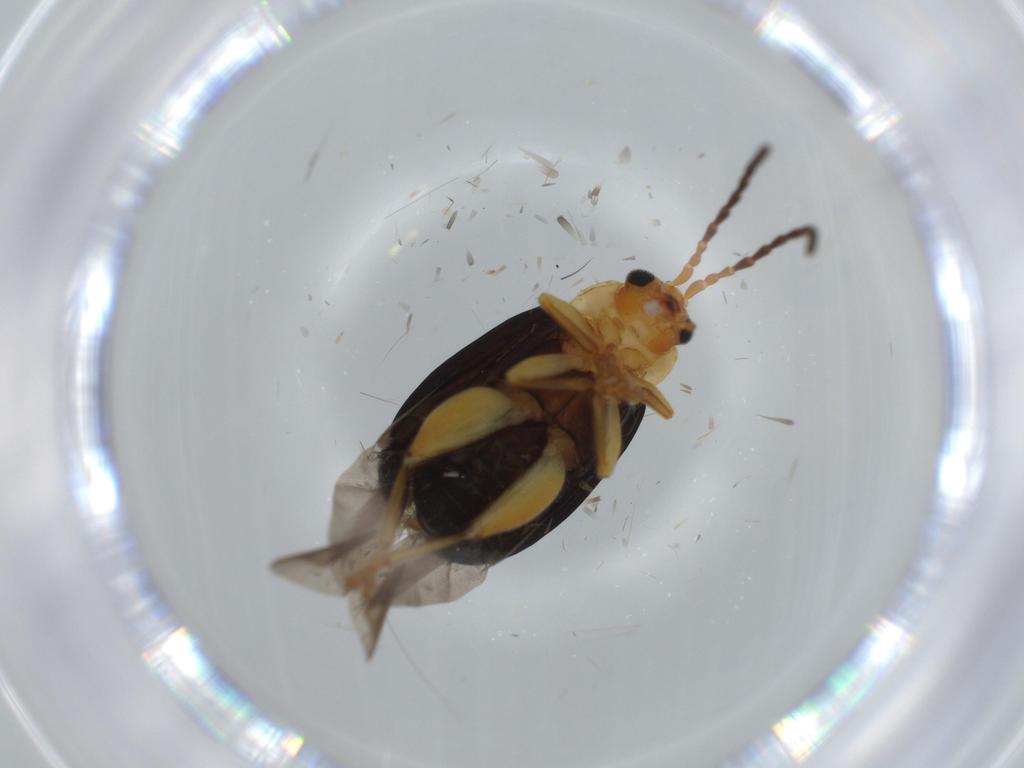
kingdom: Animalia
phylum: Arthropoda
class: Insecta
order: Coleoptera
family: Chrysomelidae
